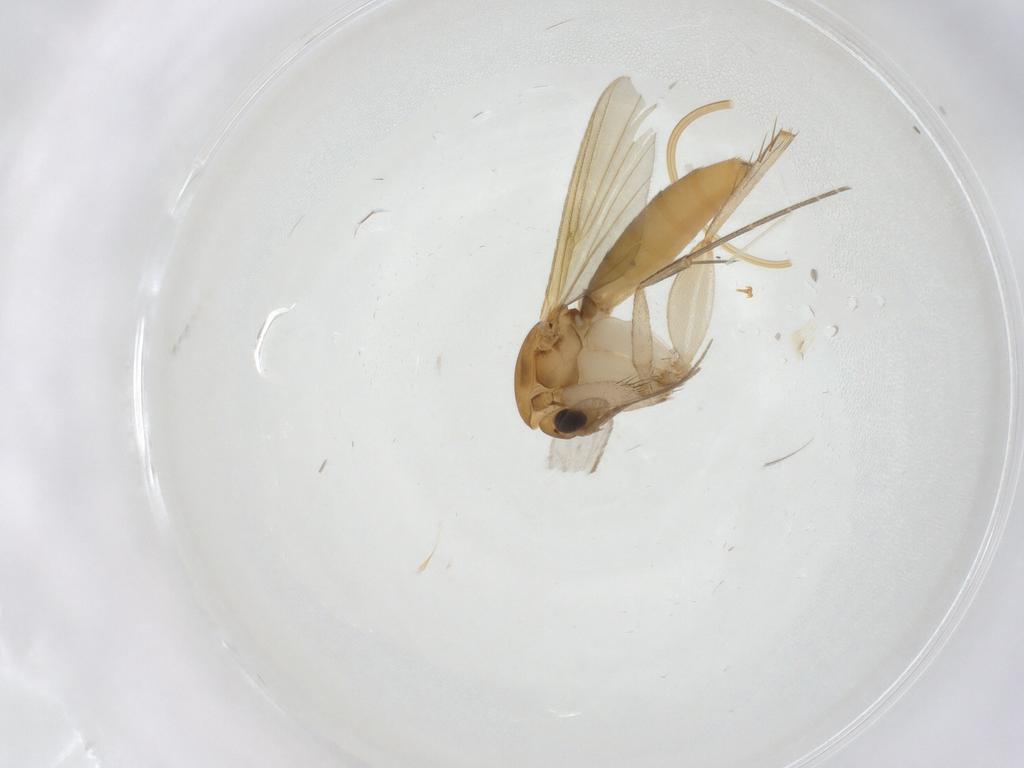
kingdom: Animalia
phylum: Arthropoda
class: Insecta
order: Diptera
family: Mycetophilidae
